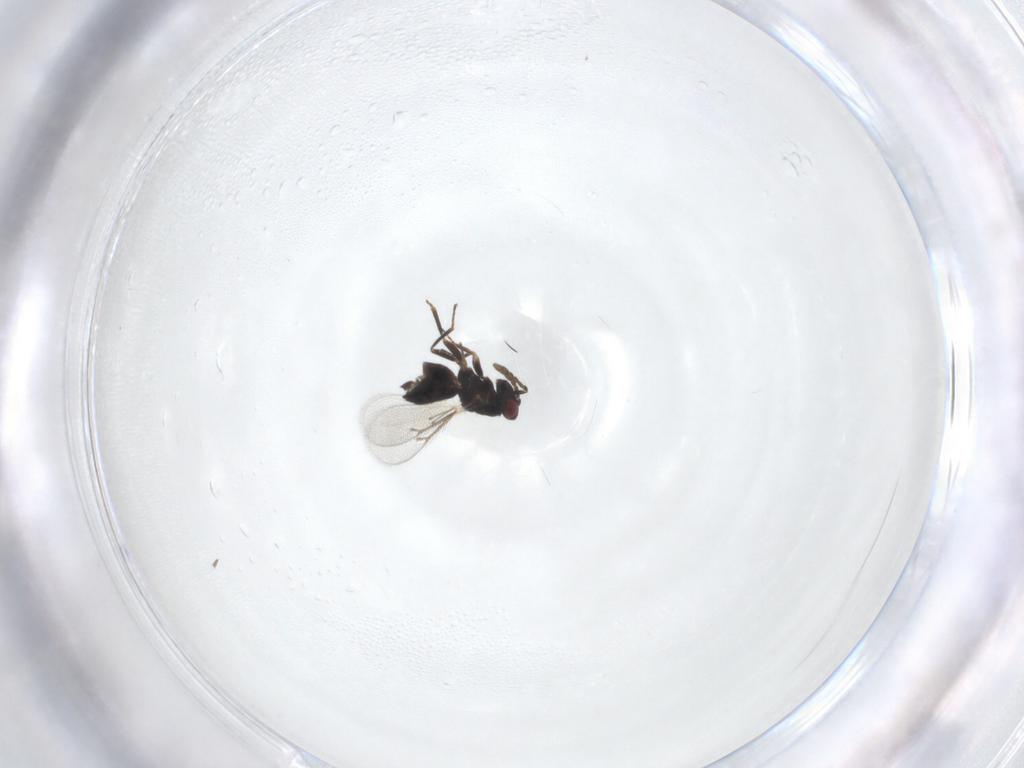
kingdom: Animalia
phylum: Arthropoda
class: Insecta
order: Hymenoptera
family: Eulophidae
